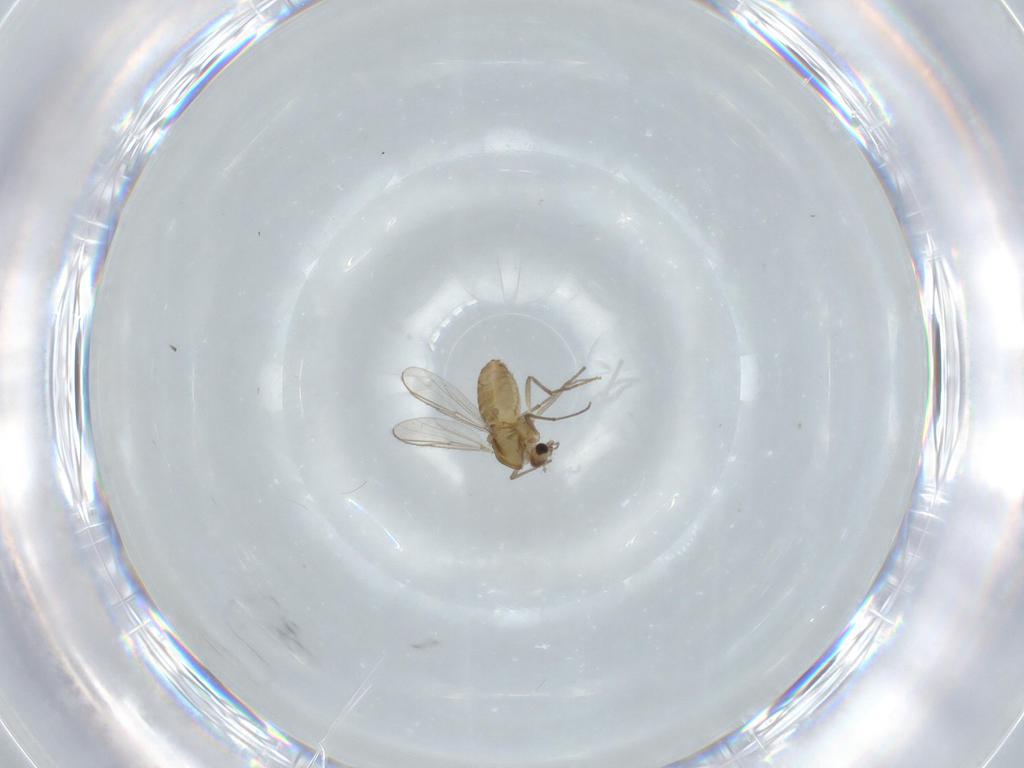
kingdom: Animalia
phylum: Arthropoda
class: Insecta
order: Diptera
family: Chironomidae
